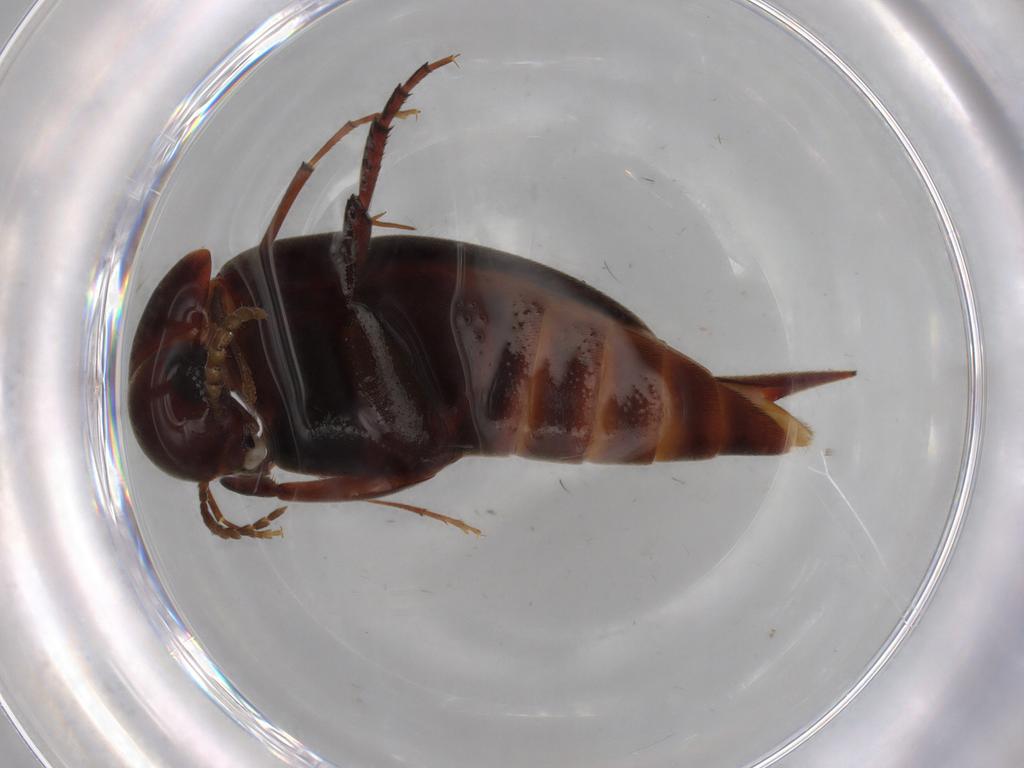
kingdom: Animalia
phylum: Arthropoda
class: Insecta
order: Coleoptera
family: Mordellidae
